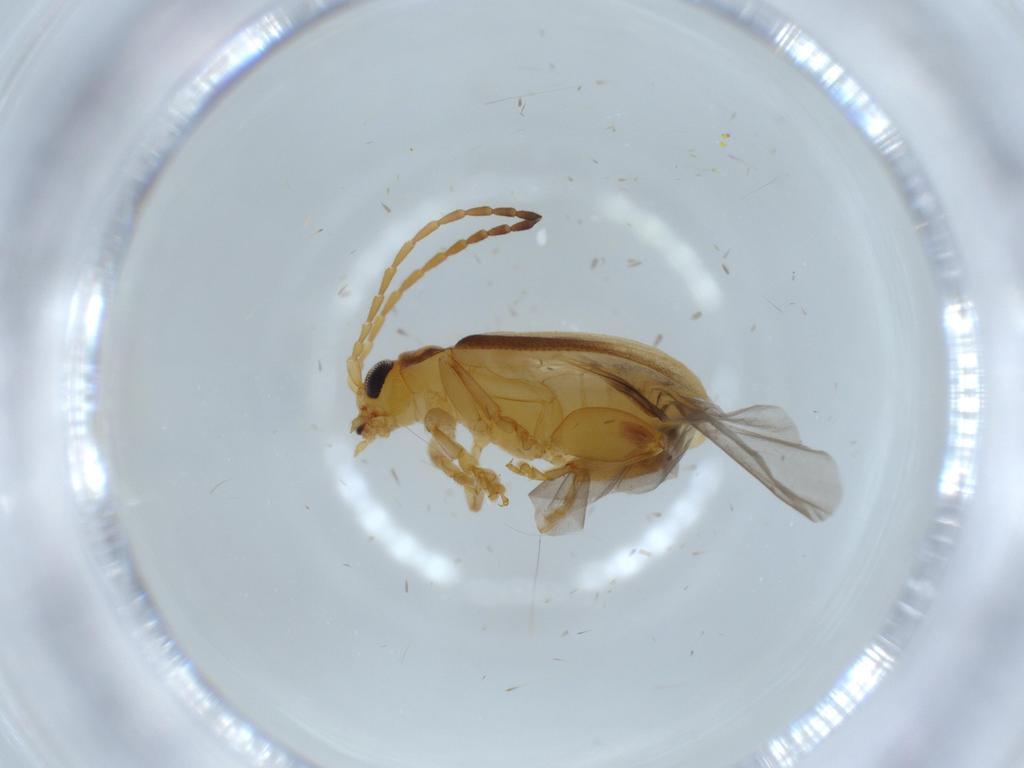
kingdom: Animalia
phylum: Arthropoda
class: Insecta
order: Coleoptera
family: Chrysomelidae
